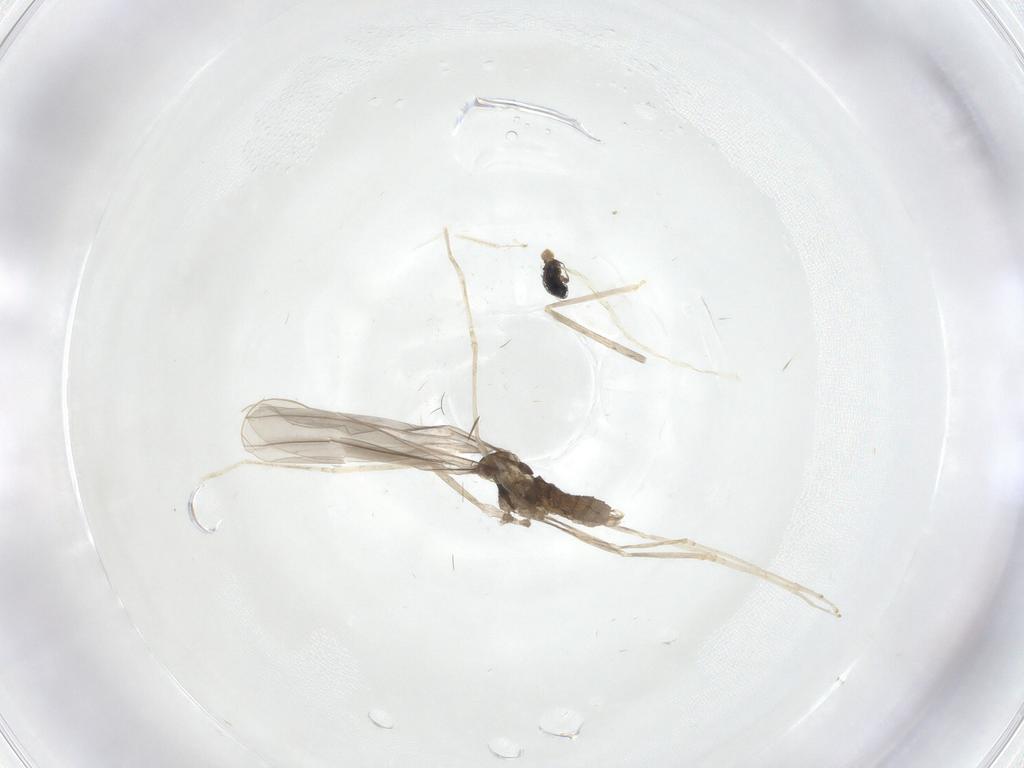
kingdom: Animalia
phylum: Arthropoda
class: Insecta
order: Diptera
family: Cecidomyiidae
